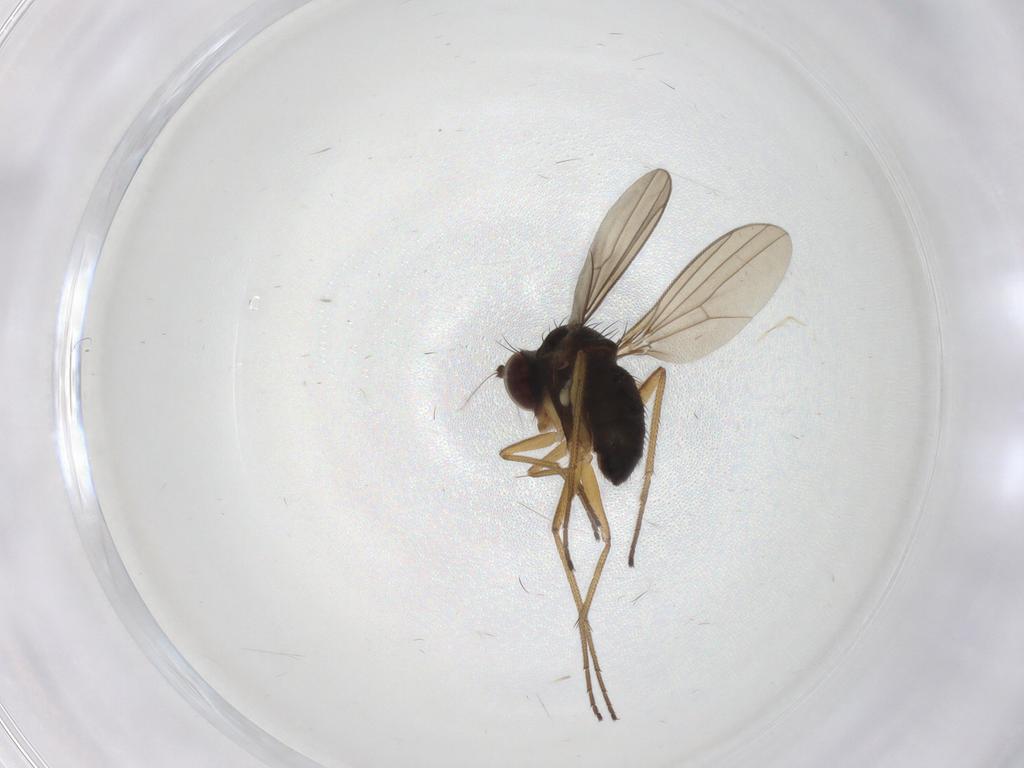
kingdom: Animalia
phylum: Arthropoda
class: Insecta
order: Diptera
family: Dolichopodidae
